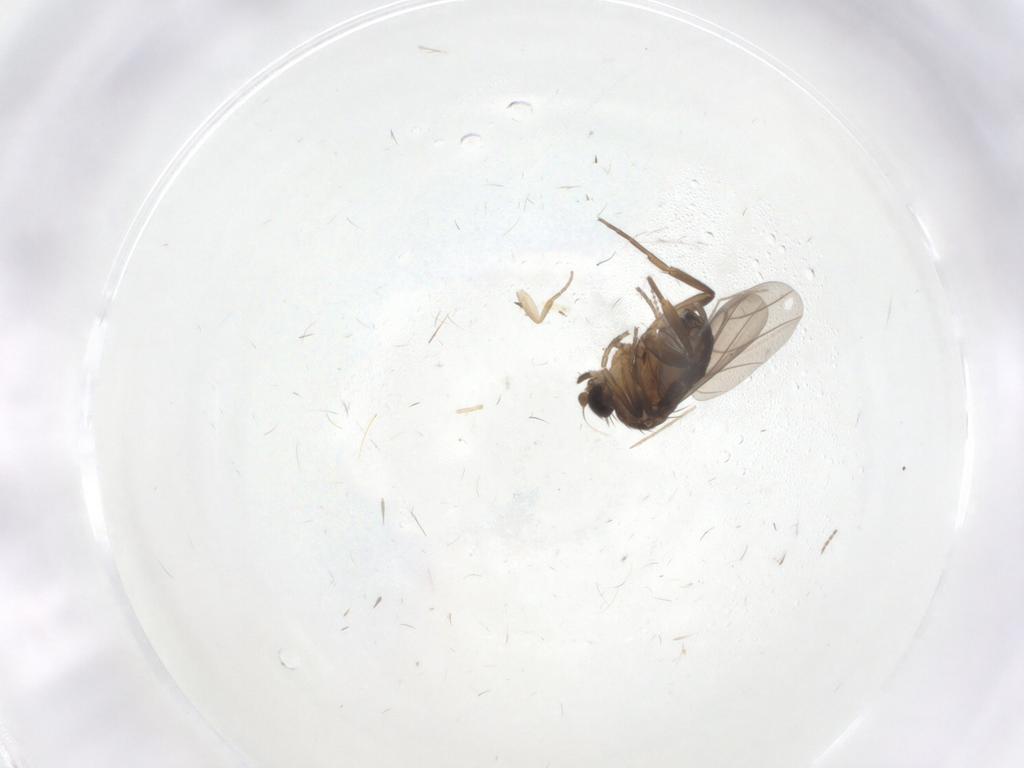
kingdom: Animalia
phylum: Arthropoda
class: Insecta
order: Diptera
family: Phoridae
